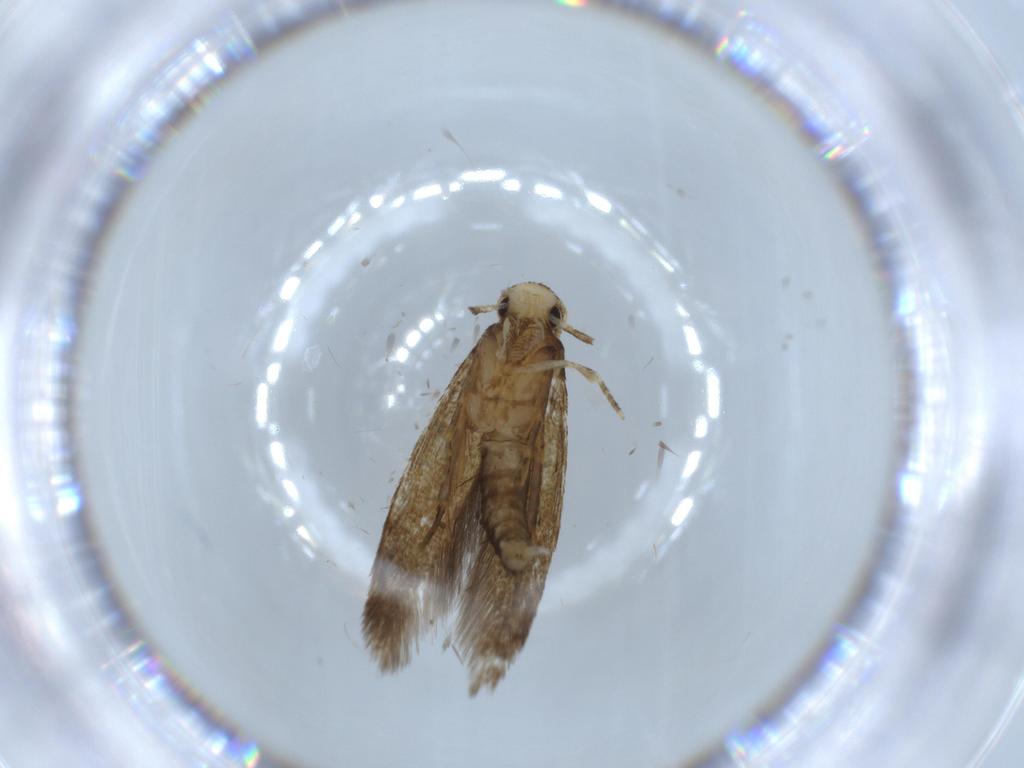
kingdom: Animalia
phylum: Arthropoda
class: Insecta
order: Lepidoptera
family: Tineidae
